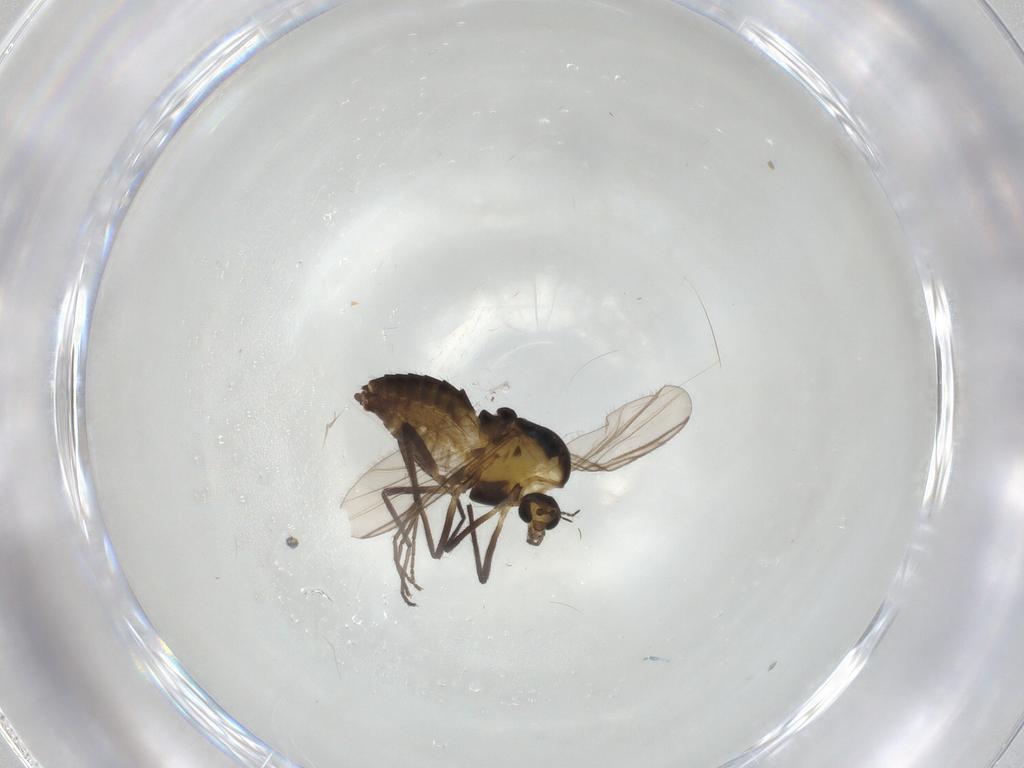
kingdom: Animalia
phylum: Arthropoda
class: Insecta
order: Diptera
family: Chironomidae
